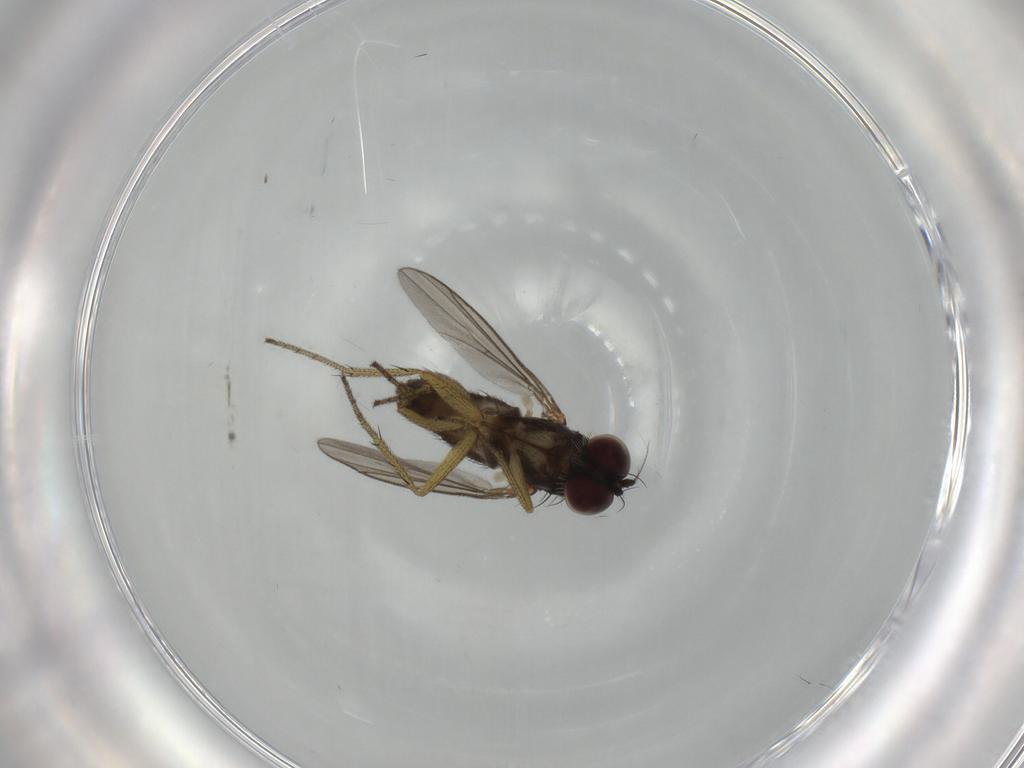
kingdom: Animalia
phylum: Arthropoda
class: Insecta
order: Diptera
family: Dolichopodidae
